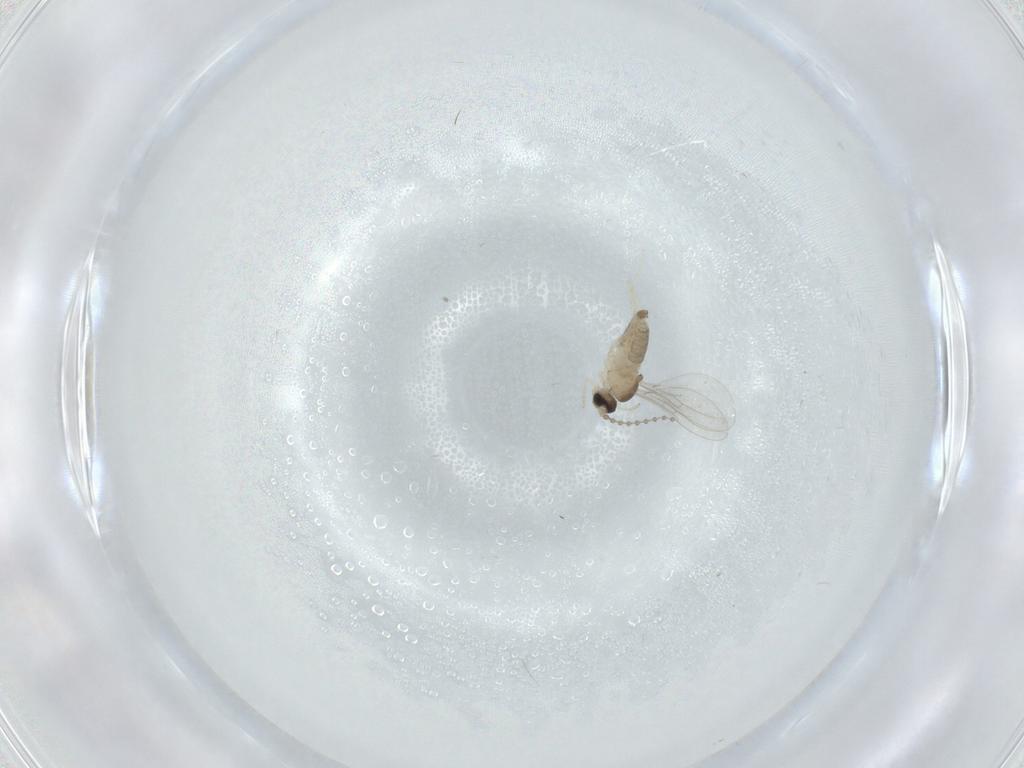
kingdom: Animalia
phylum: Arthropoda
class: Insecta
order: Diptera
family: Cecidomyiidae
